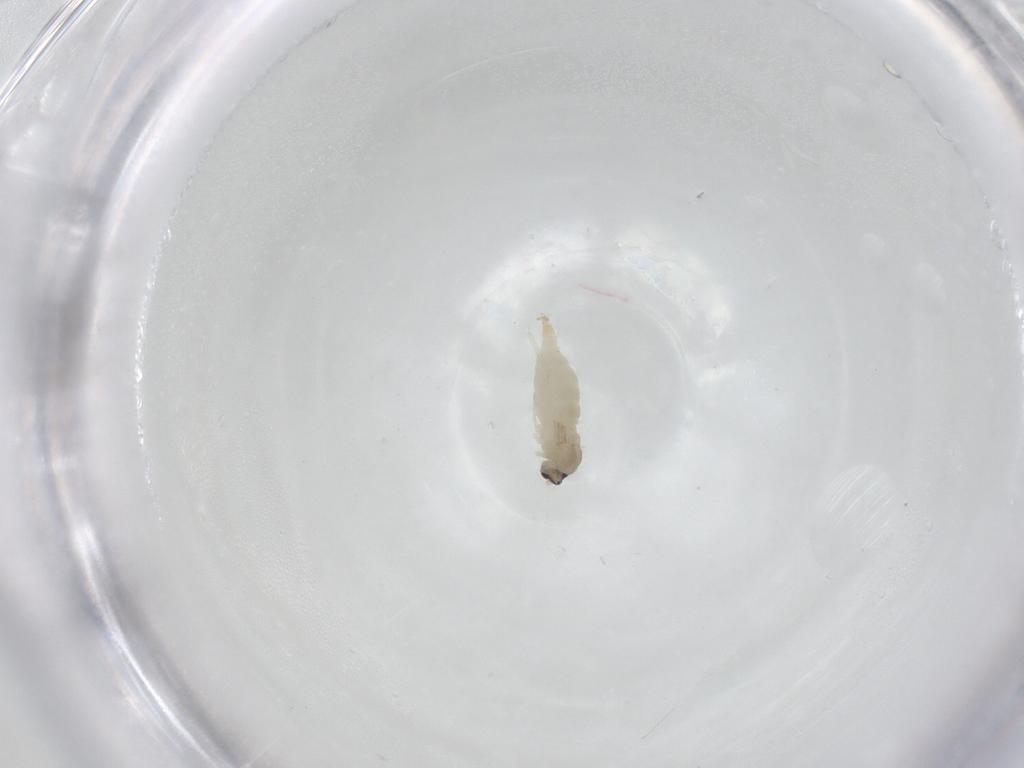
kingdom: Animalia
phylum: Arthropoda
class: Insecta
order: Diptera
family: Cecidomyiidae
